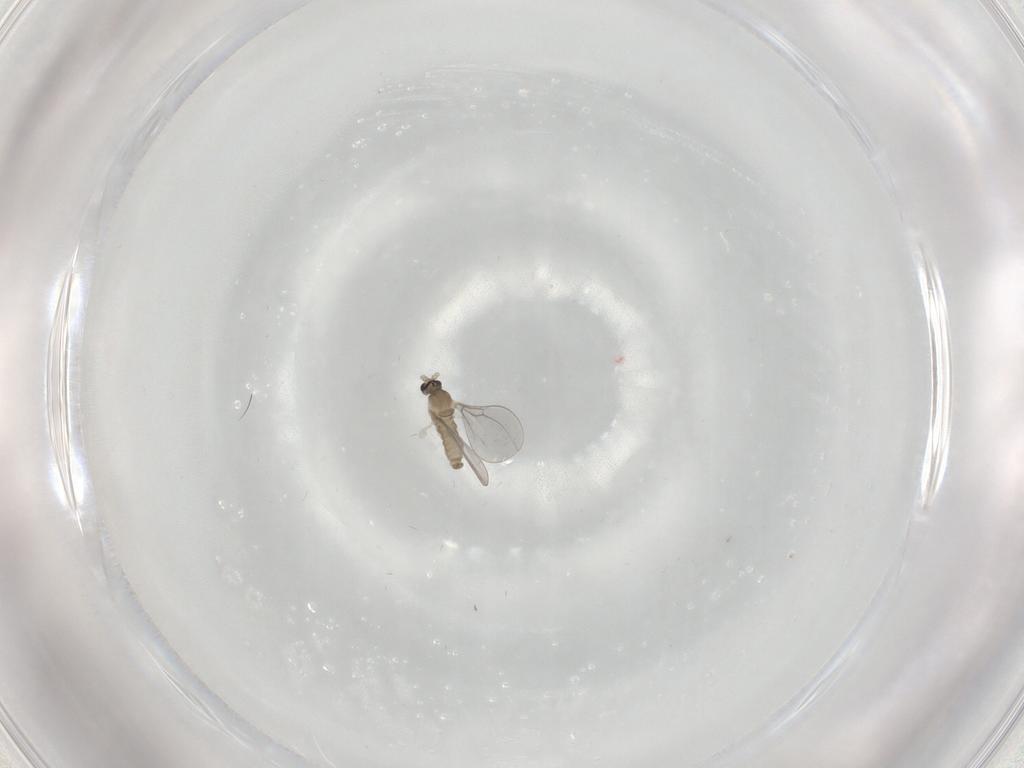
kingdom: Animalia
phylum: Arthropoda
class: Insecta
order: Diptera
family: Cecidomyiidae
